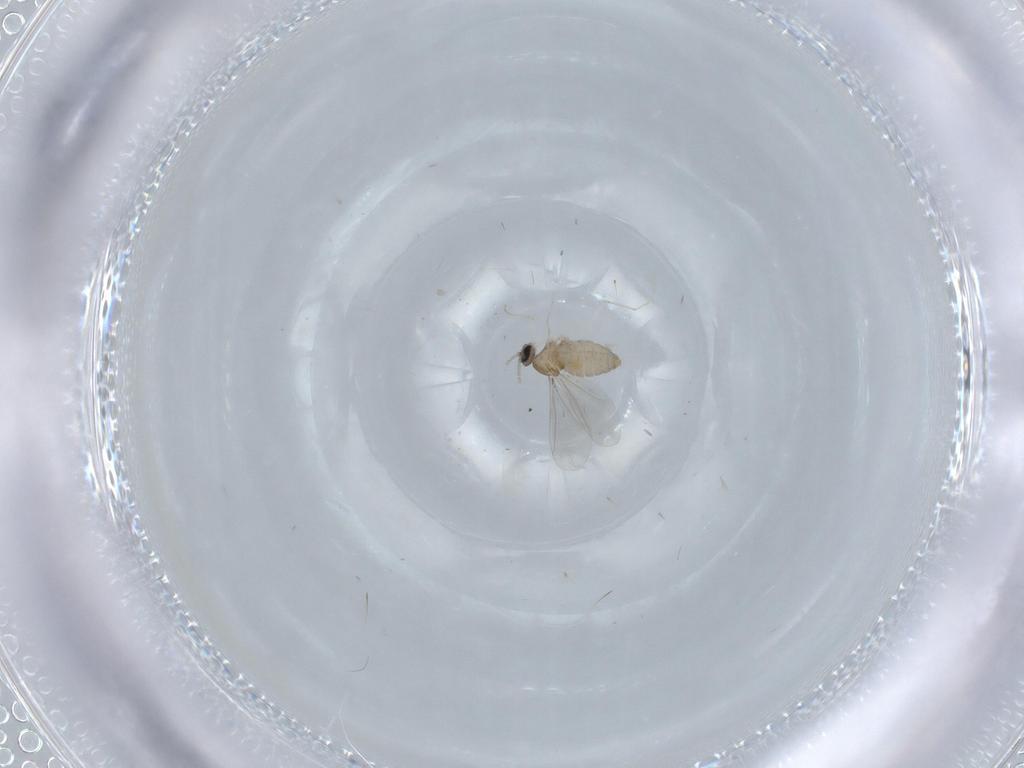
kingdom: Animalia
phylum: Arthropoda
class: Insecta
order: Diptera
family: Cecidomyiidae
